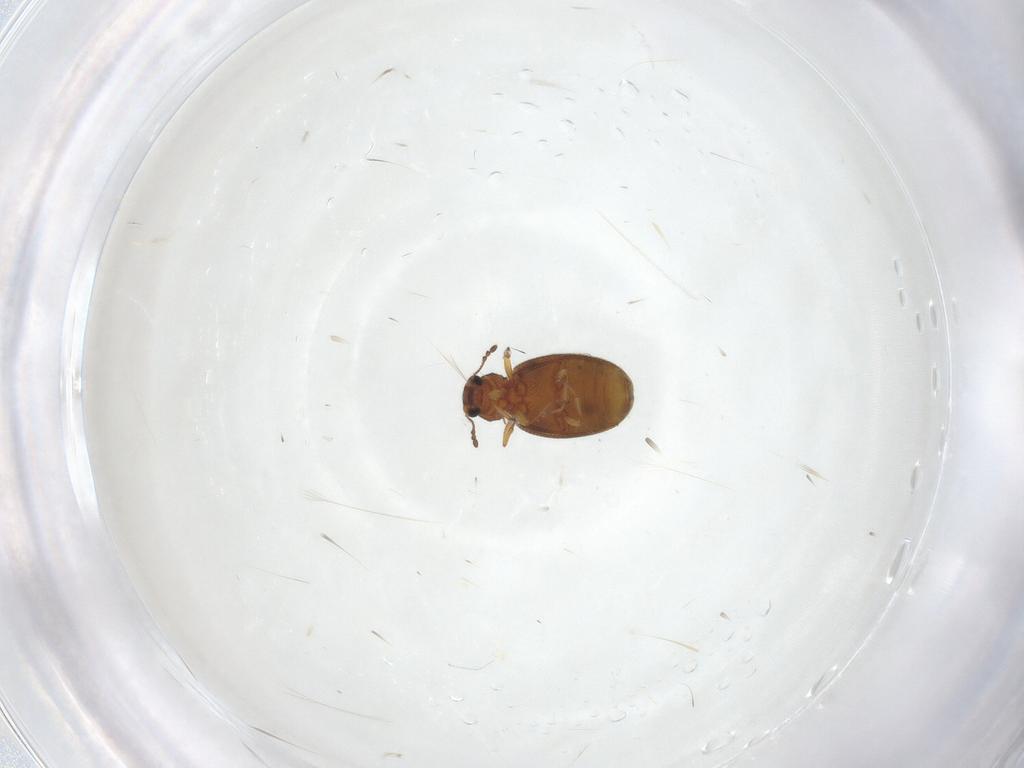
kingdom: Animalia
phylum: Arthropoda
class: Insecta
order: Coleoptera
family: Latridiidae
